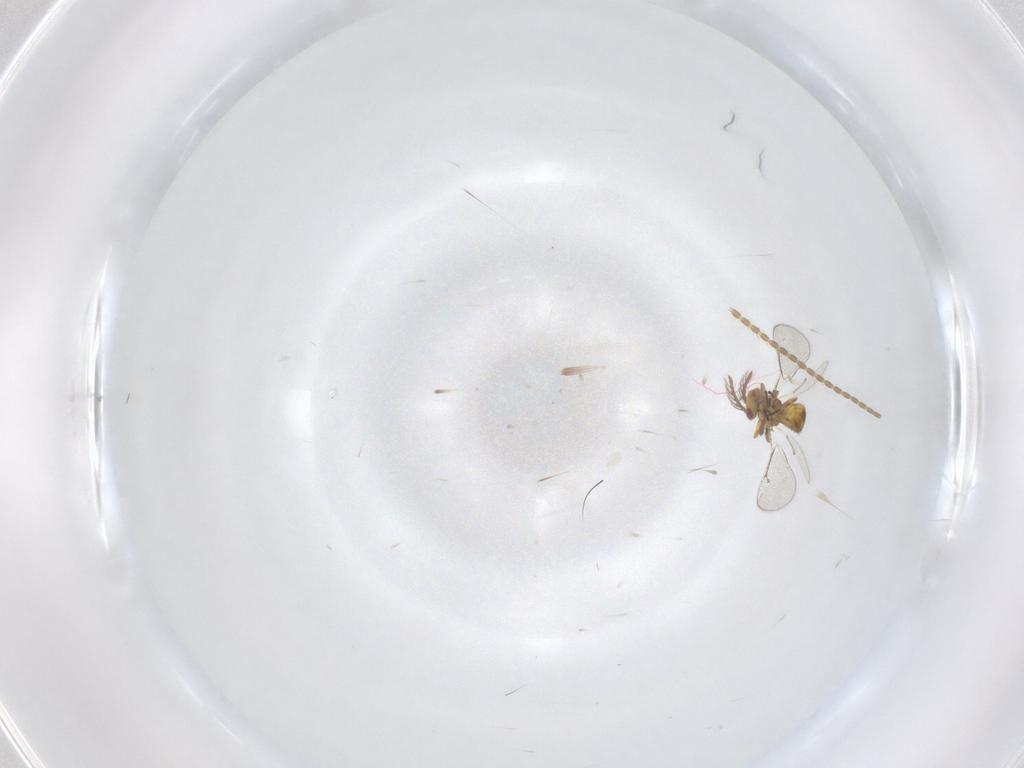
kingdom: Animalia
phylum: Arthropoda
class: Insecta
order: Hymenoptera
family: Eulophidae
